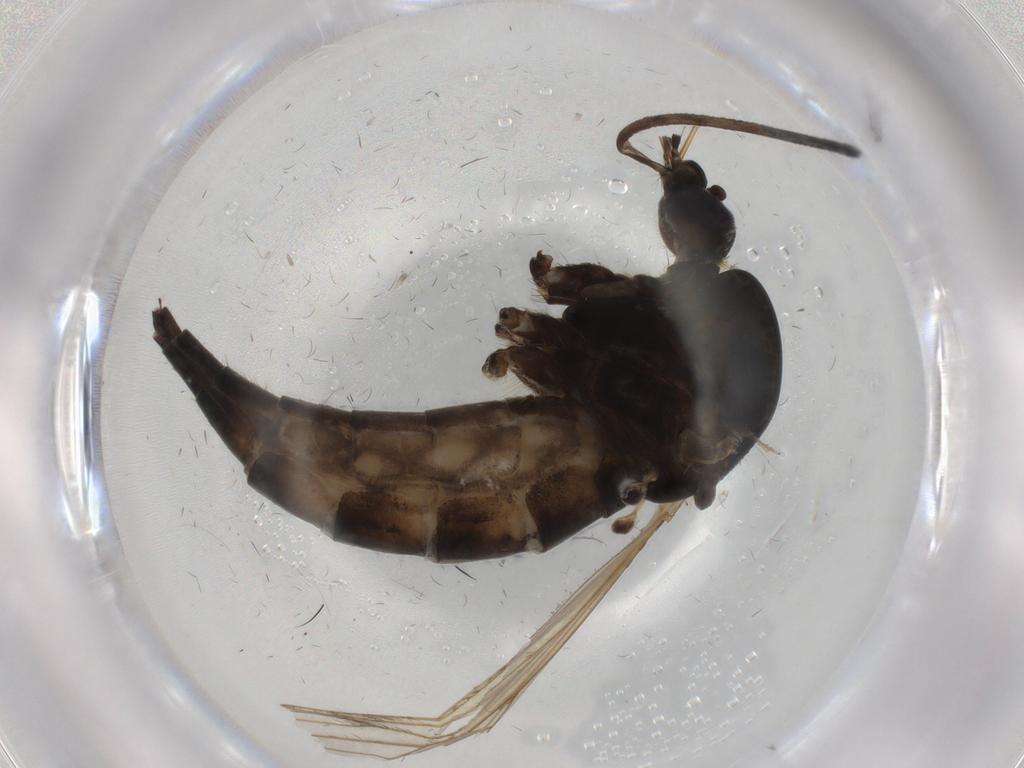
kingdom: Animalia
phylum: Arthropoda
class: Insecta
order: Diptera
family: Culicidae
